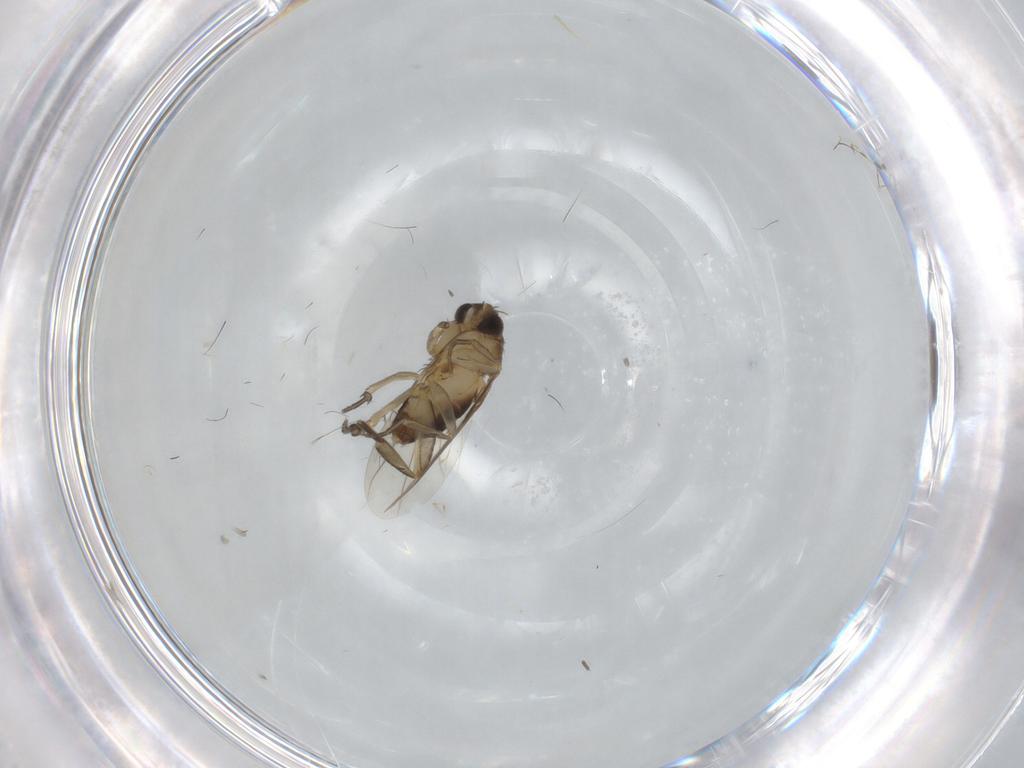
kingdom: Animalia
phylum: Arthropoda
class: Insecta
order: Diptera
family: Phoridae
